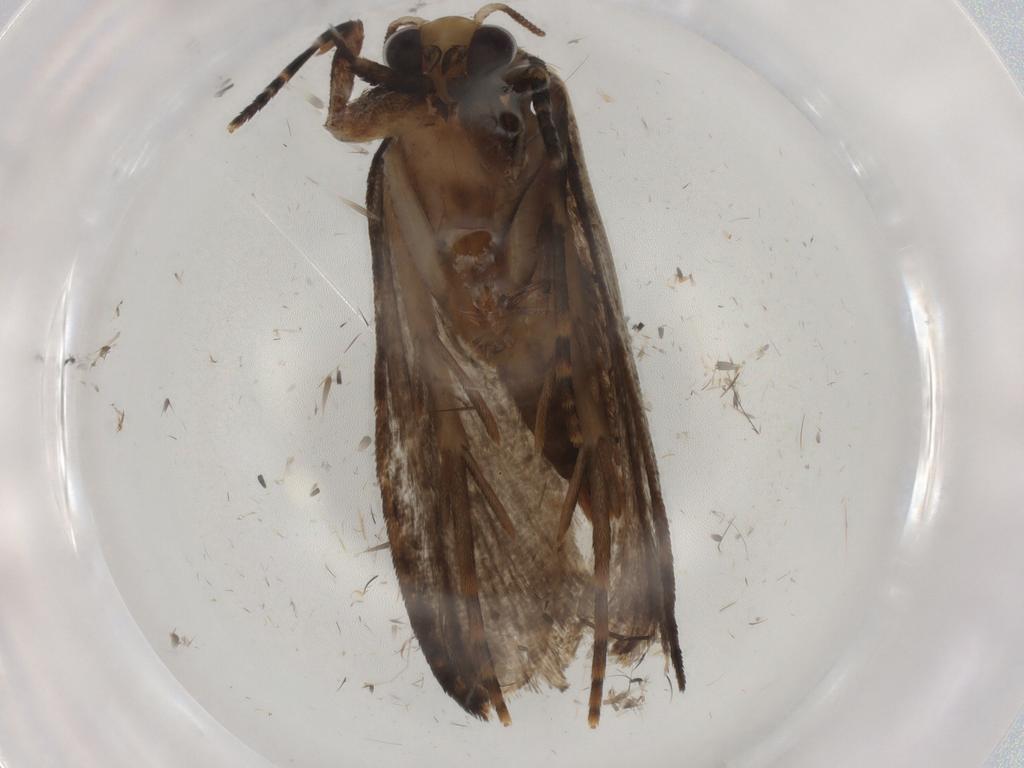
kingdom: Animalia
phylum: Arthropoda
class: Insecta
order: Lepidoptera
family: Tineidae
